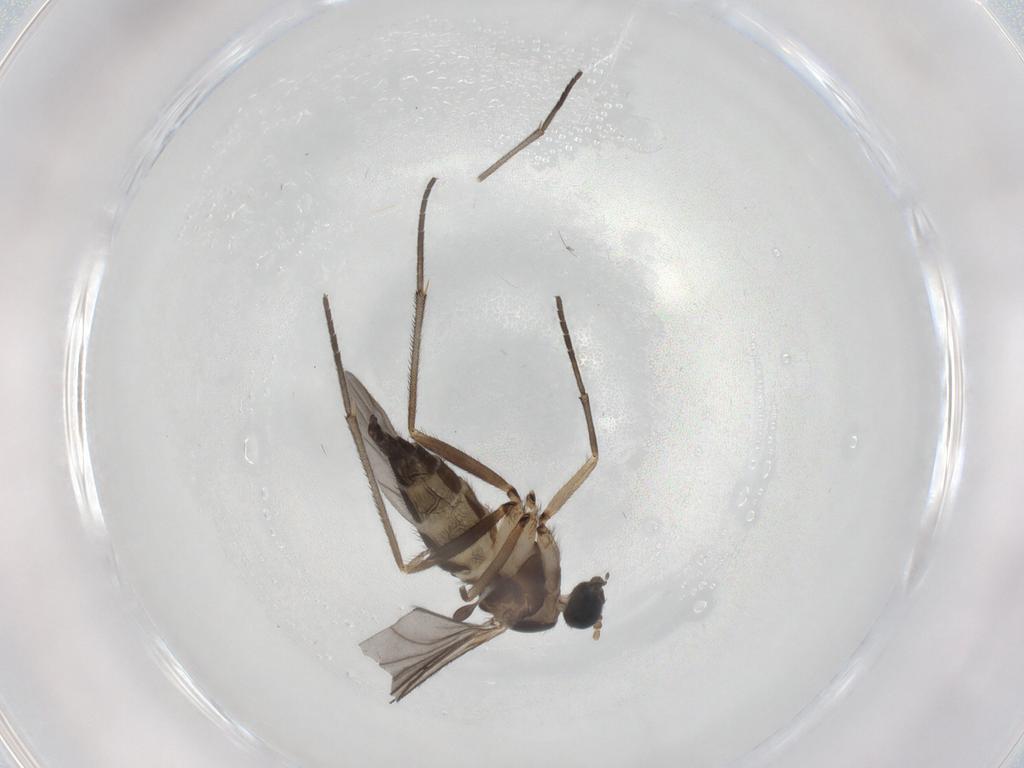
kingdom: Animalia
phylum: Arthropoda
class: Insecta
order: Diptera
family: Sciaridae
